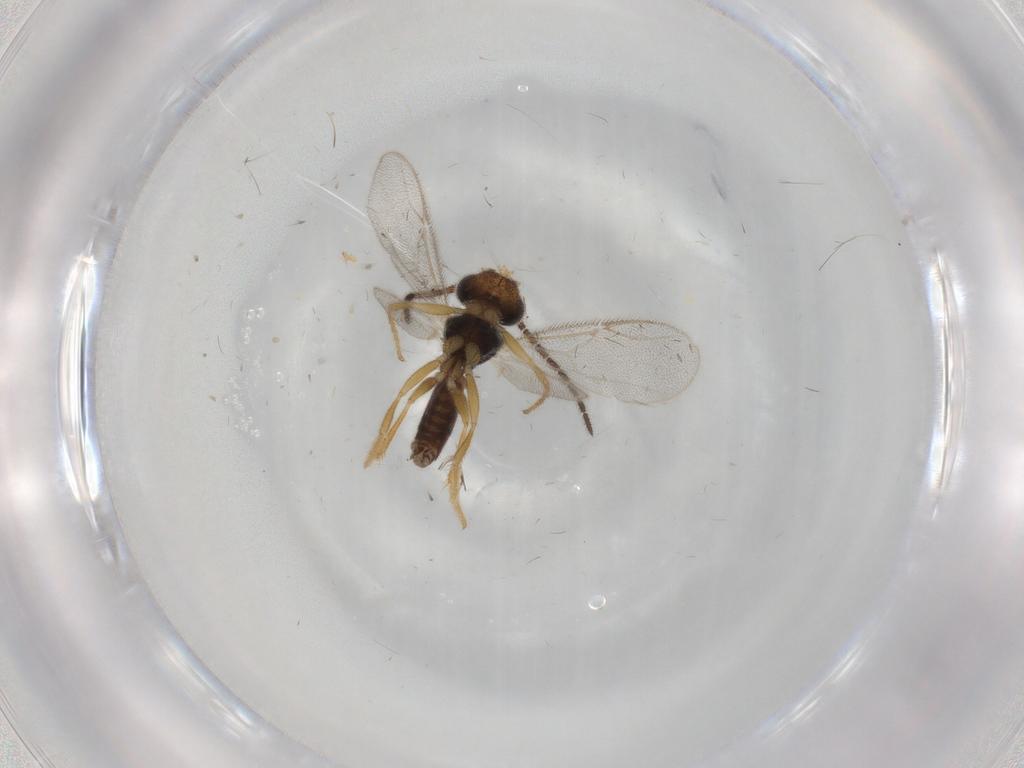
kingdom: Animalia
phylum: Arthropoda
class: Insecta
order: Hymenoptera
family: Dryinidae
